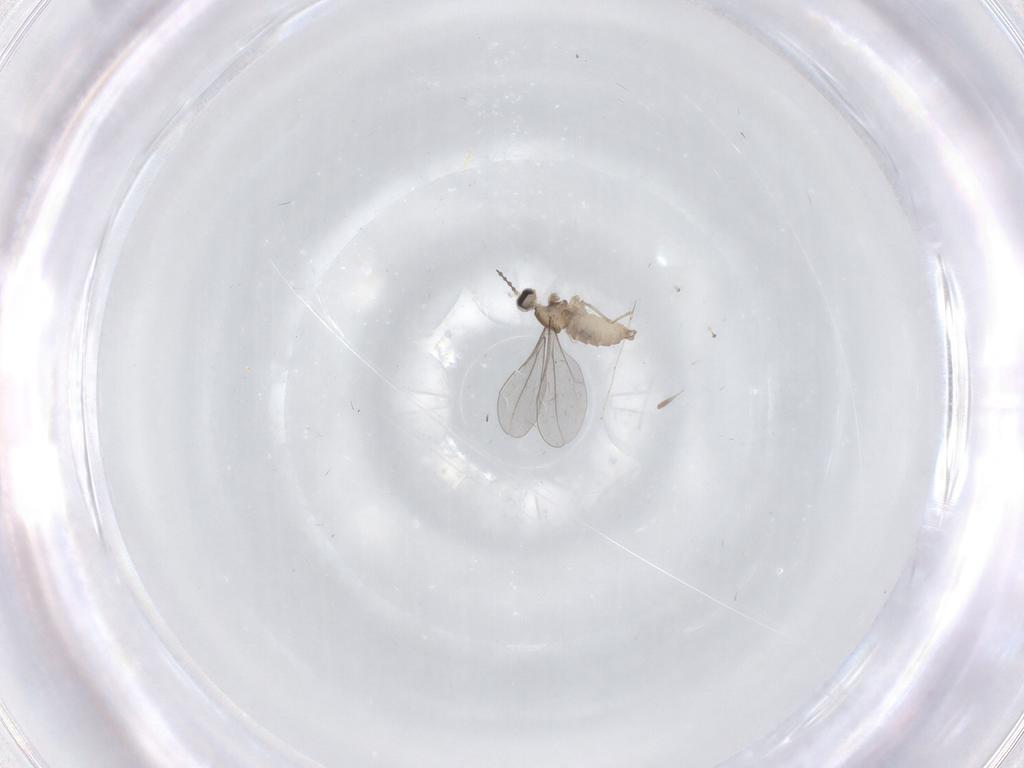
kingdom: Animalia
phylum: Arthropoda
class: Insecta
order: Diptera
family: Cecidomyiidae
